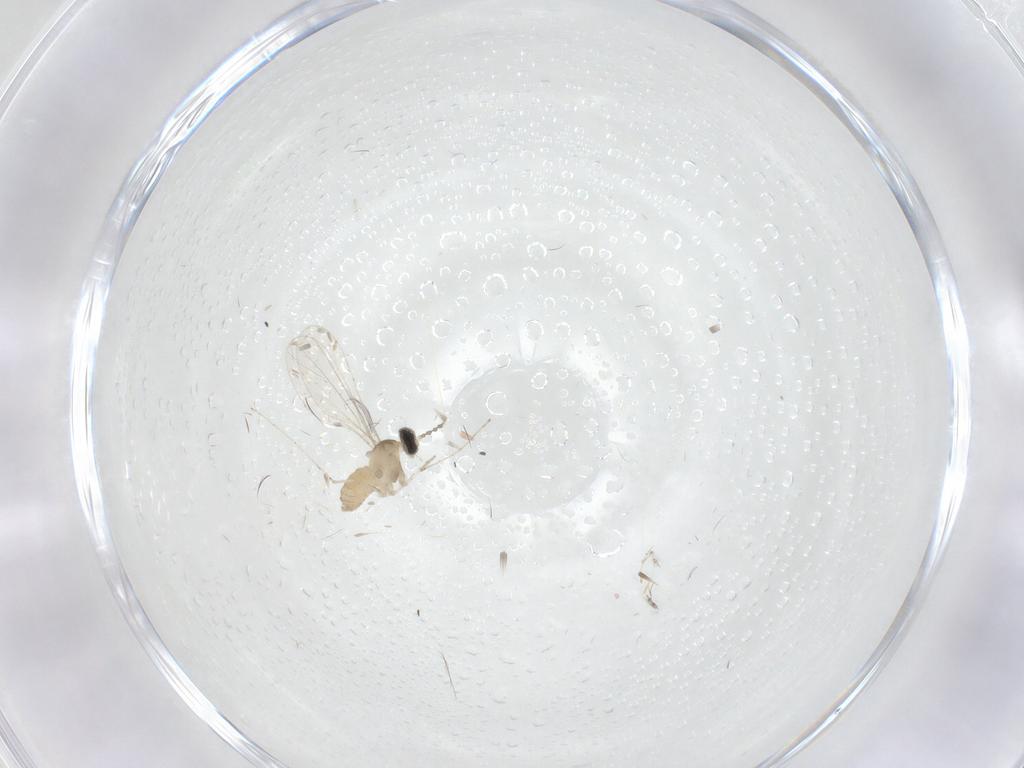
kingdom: Animalia
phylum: Arthropoda
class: Insecta
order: Diptera
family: Cecidomyiidae
